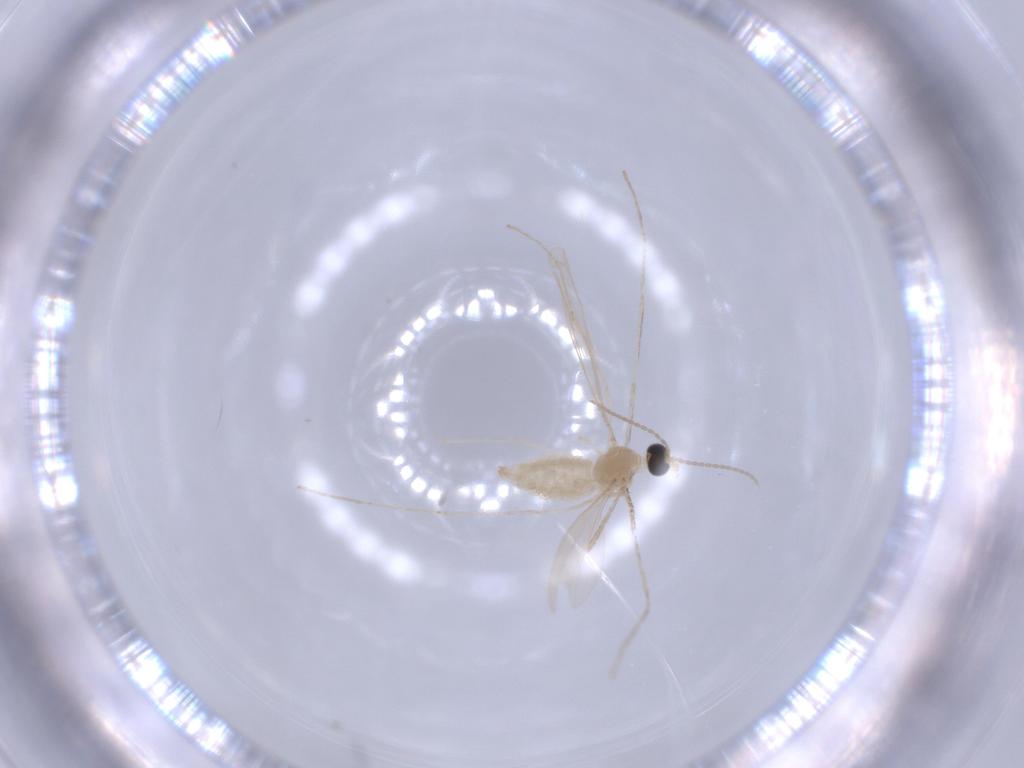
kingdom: Animalia
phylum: Arthropoda
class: Insecta
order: Diptera
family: Cecidomyiidae
